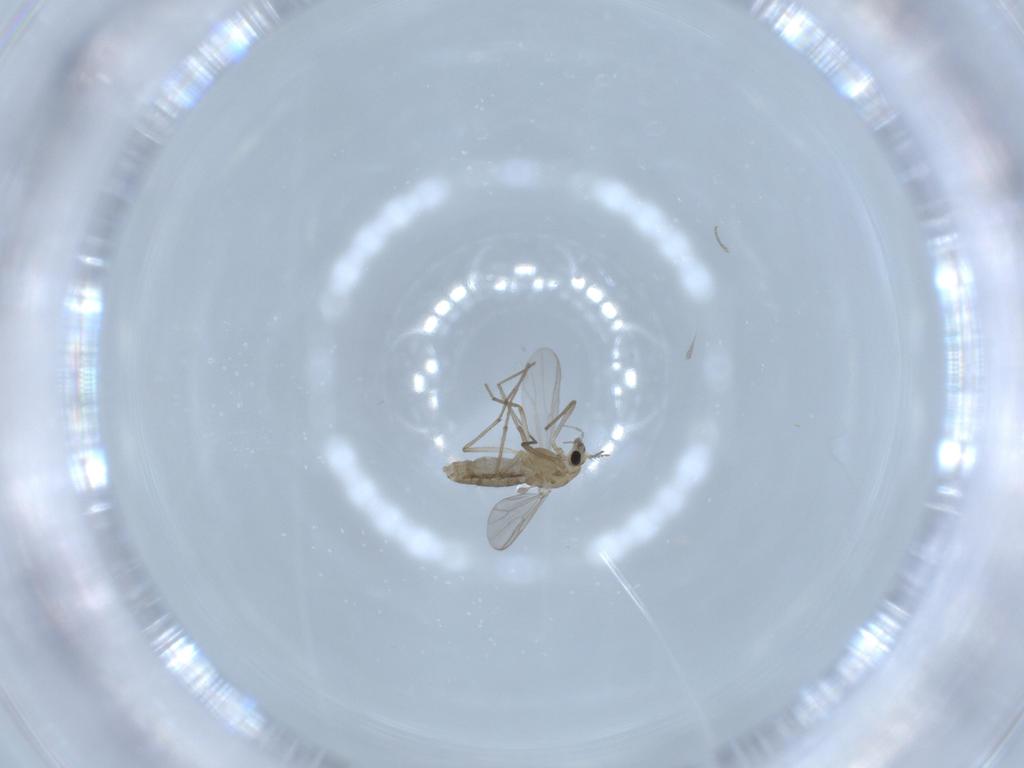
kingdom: Animalia
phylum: Arthropoda
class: Insecta
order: Diptera
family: Chironomidae
